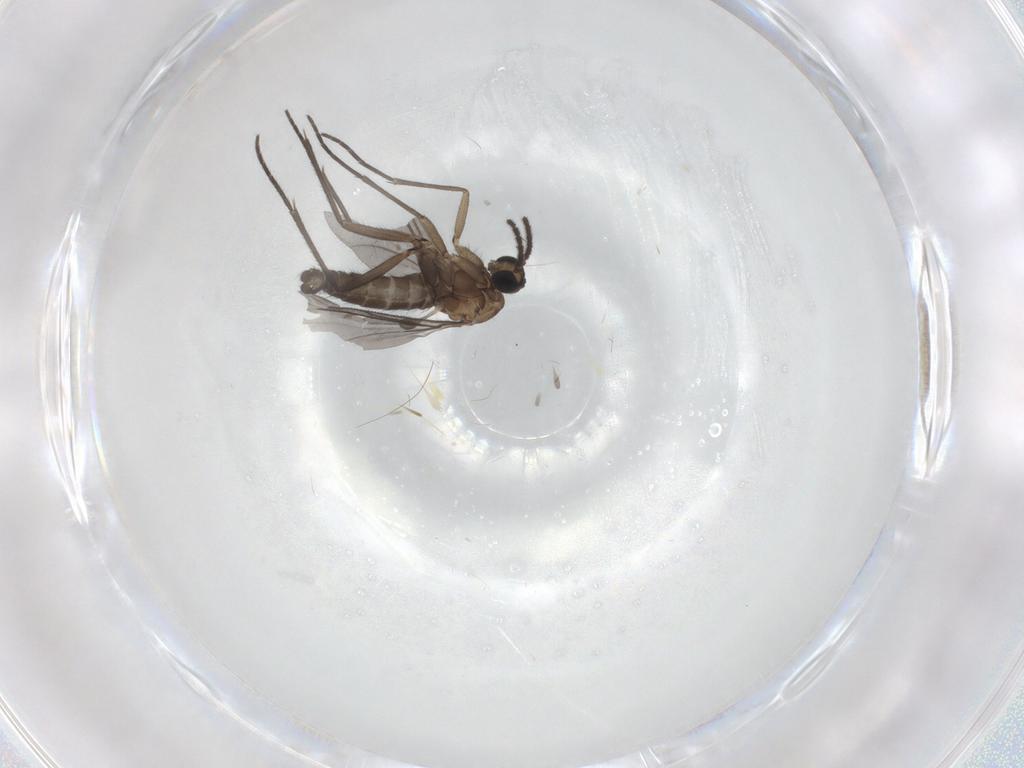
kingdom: Animalia
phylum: Arthropoda
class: Insecta
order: Diptera
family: Sciaridae
